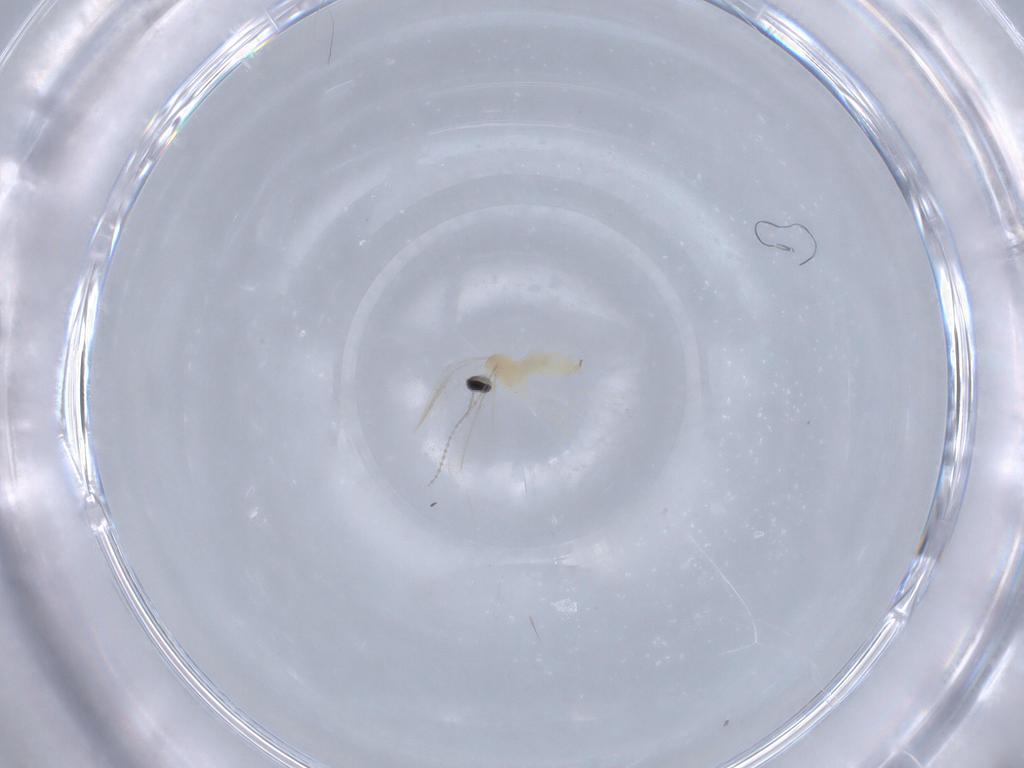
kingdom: Animalia
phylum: Arthropoda
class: Insecta
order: Diptera
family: Cecidomyiidae
